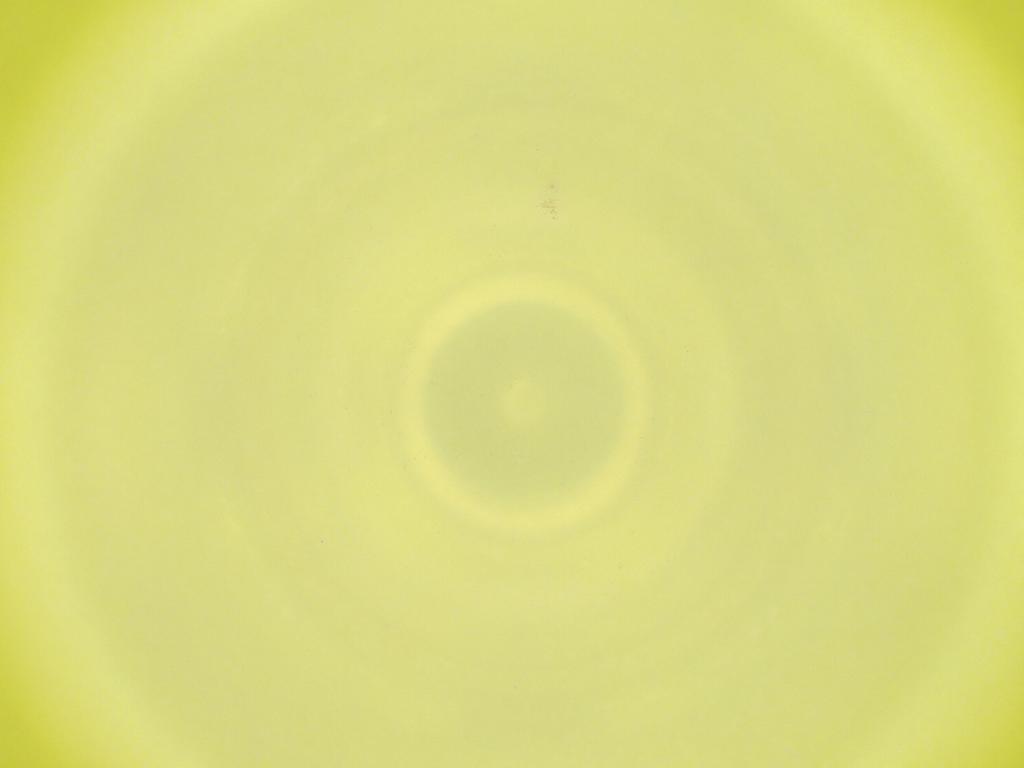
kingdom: Animalia
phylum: Arthropoda
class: Insecta
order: Diptera
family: Cecidomyiidae
